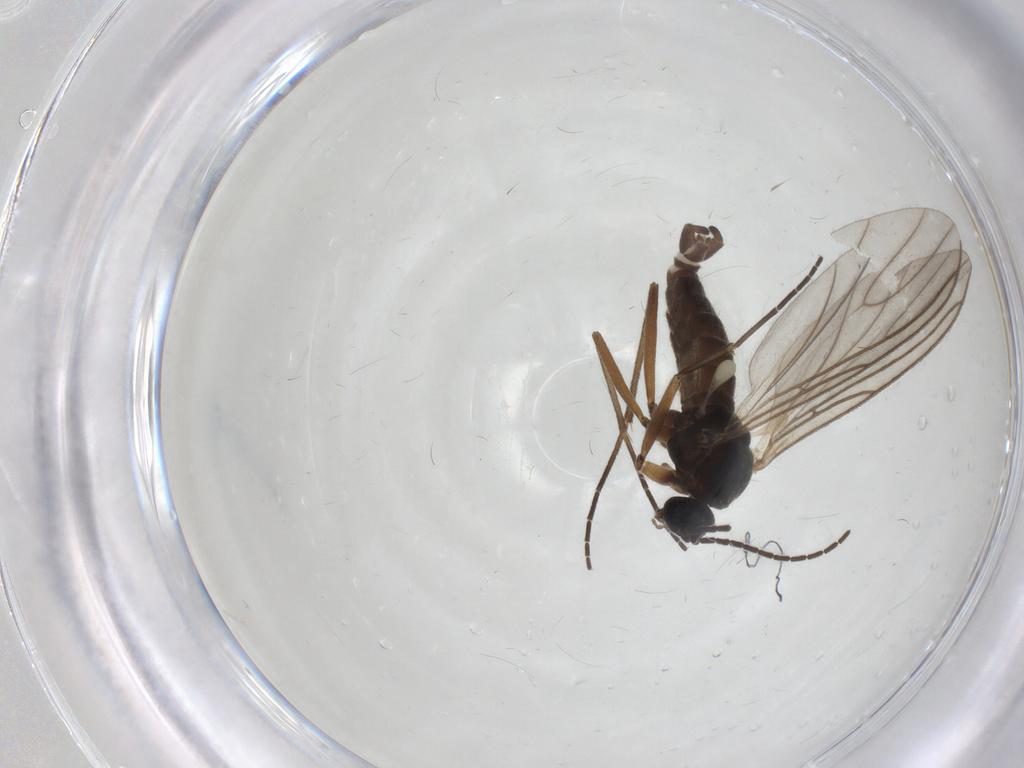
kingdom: Animalia
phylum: Arthropoda
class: Insecta
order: Diptera
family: Sciaridae
